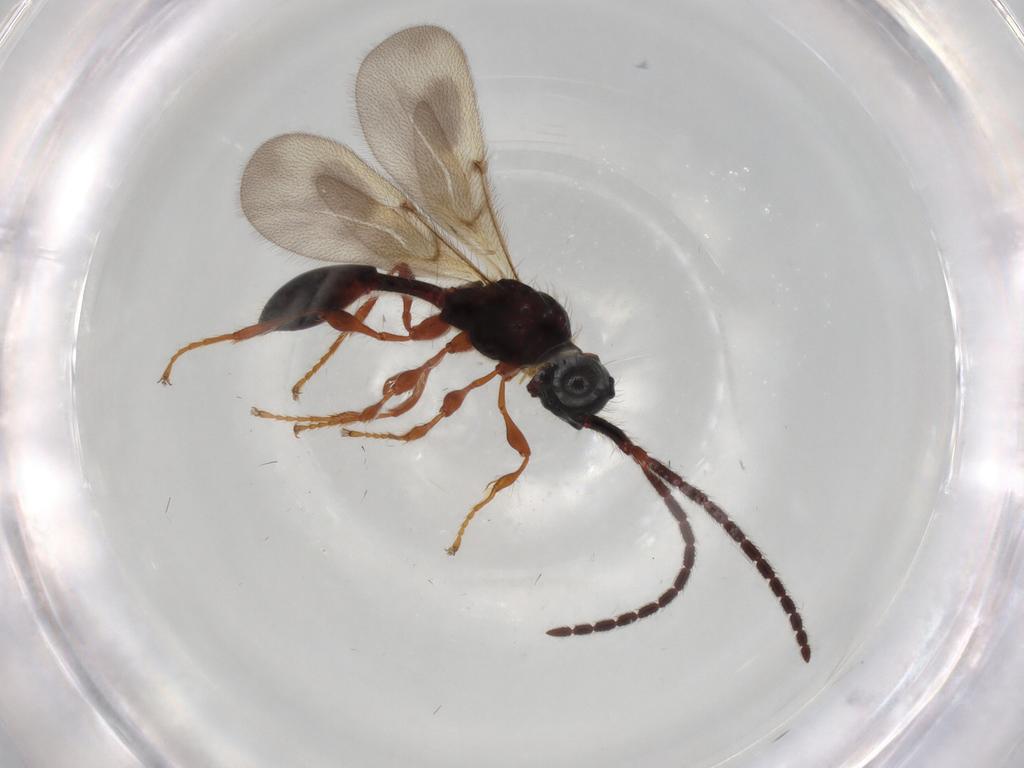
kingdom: Animalia
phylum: Arthropoda
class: Insecta
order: Hymenoptera
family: Diapriidae
